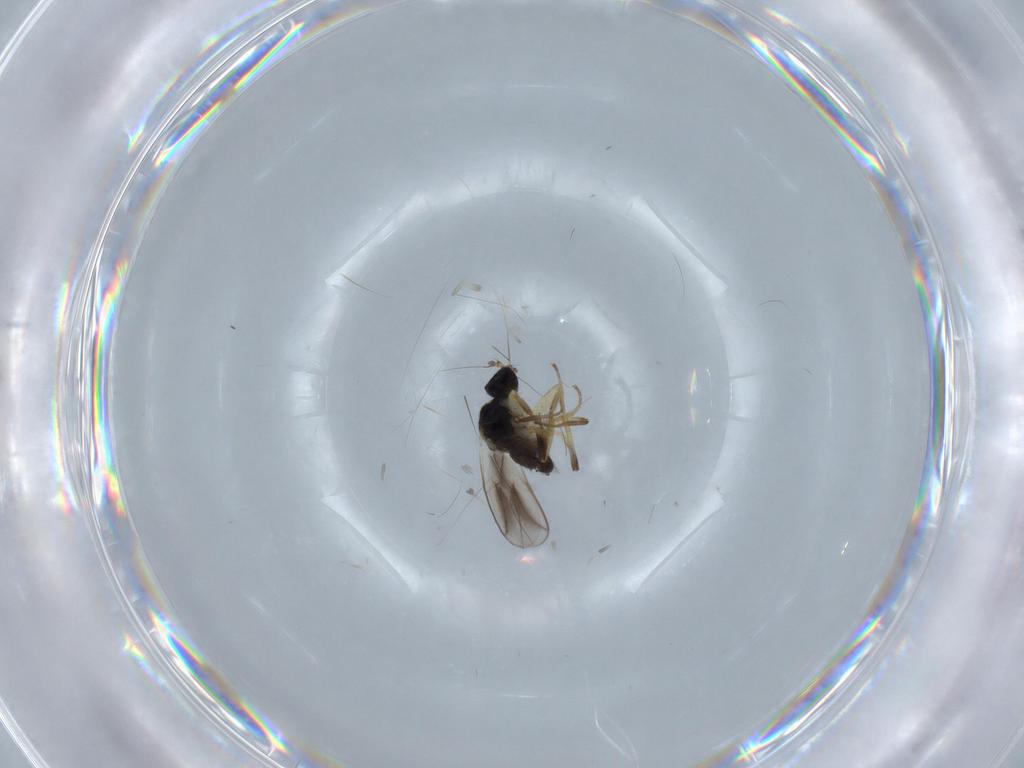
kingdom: Animalia
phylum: Arthropoda
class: Insecta
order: Diptera
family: Hybotidae
